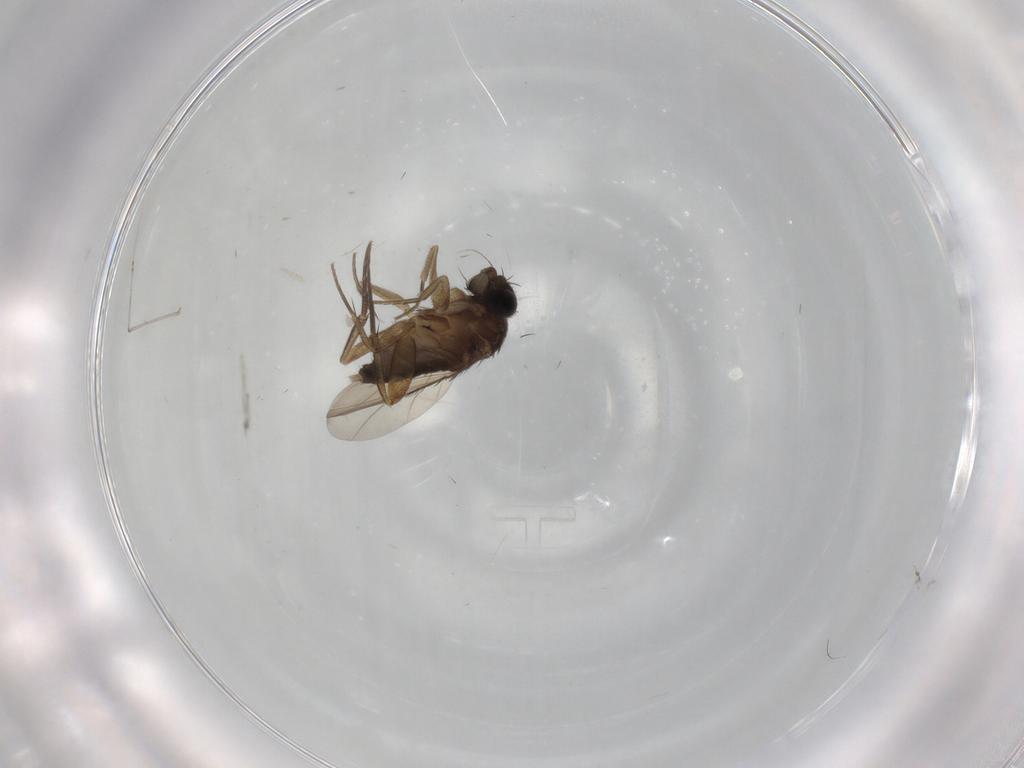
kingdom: Animalia
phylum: Arthropoda
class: Insecta
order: Diptera
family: Phoridae
